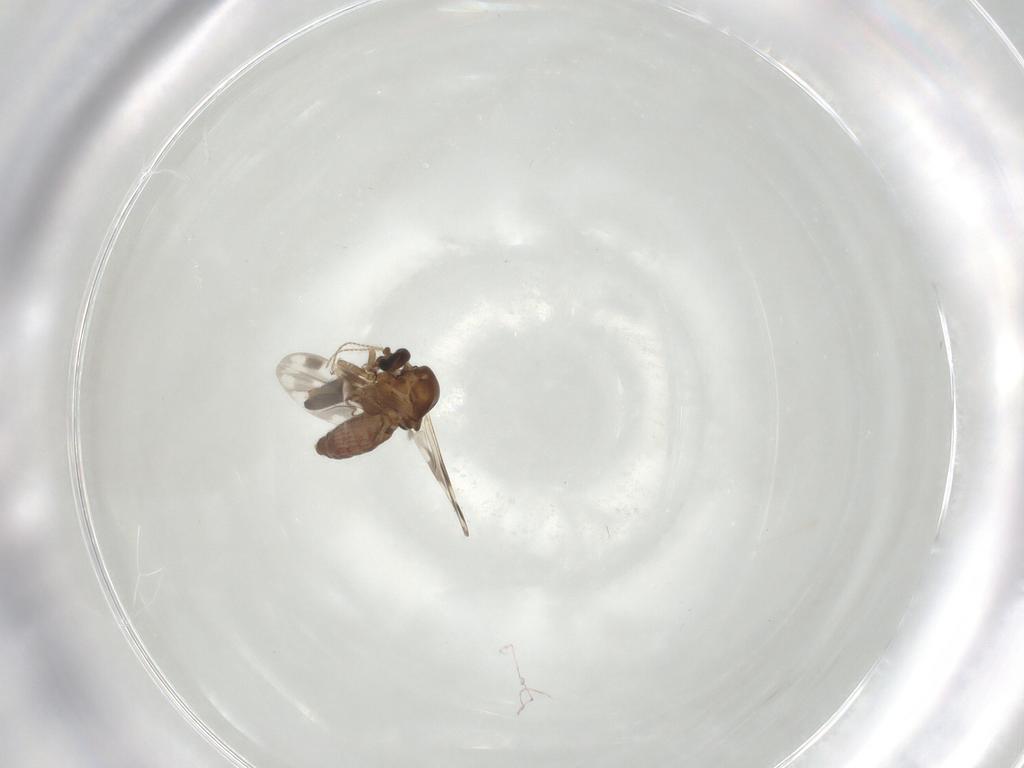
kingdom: Animalia
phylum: Arthropoda
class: Insecta
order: Diptera
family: Ceratopogonidae
